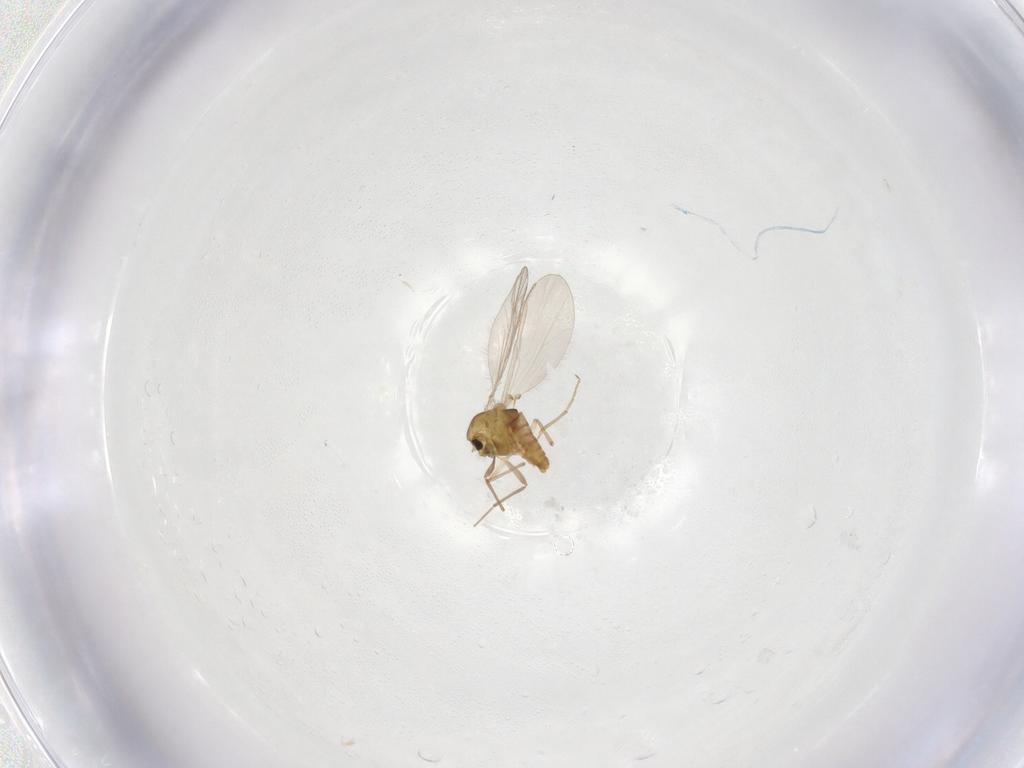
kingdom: Animalia
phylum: Arthropoda
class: Insecta
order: Diptera
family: Chironomidae
